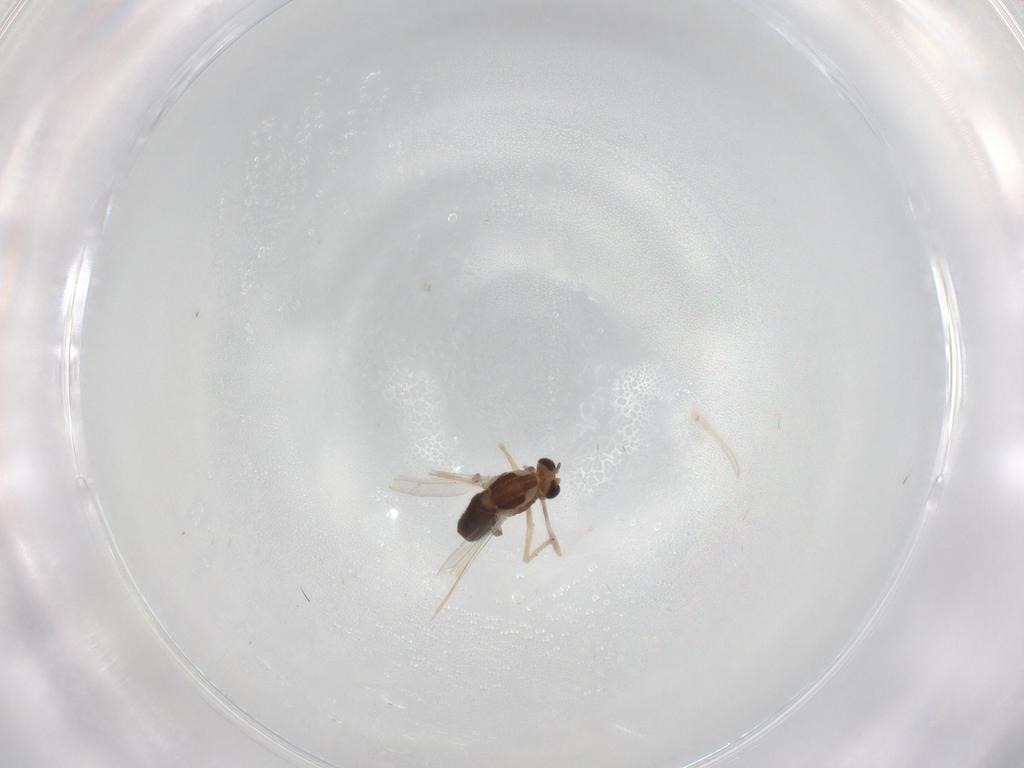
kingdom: Animalia
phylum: Arthropoda
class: Insecta
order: Diptera
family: Chironomidae
